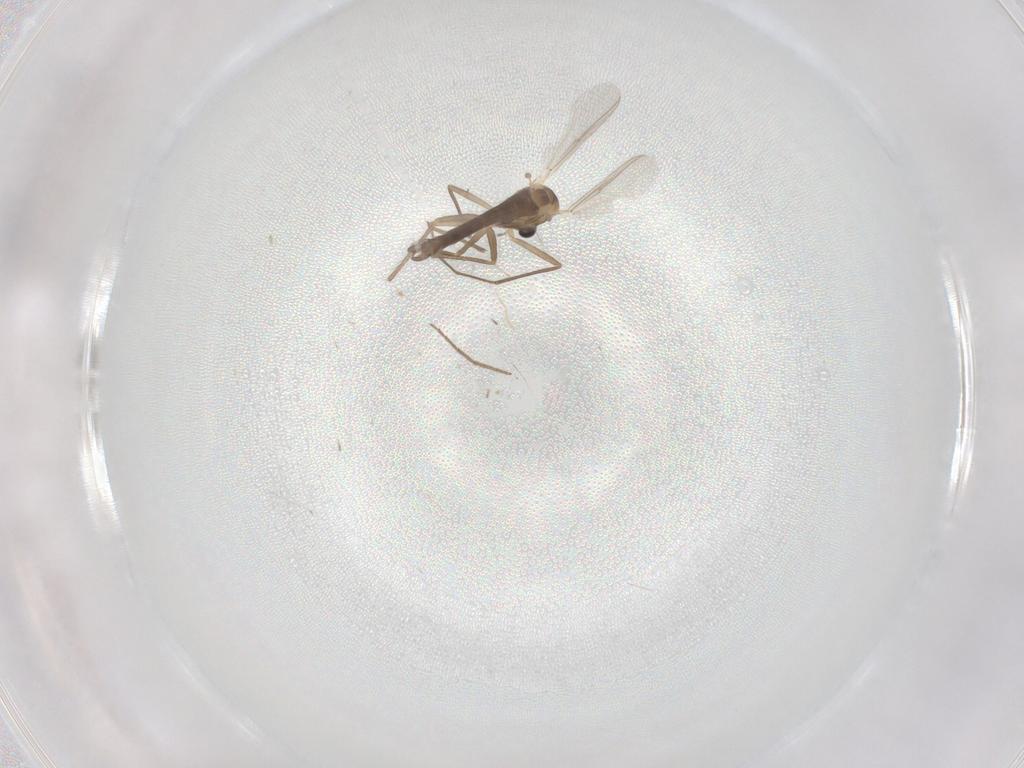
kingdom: Animalia
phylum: Arthropoda
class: Insecta
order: Diptera
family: Chironomidae
